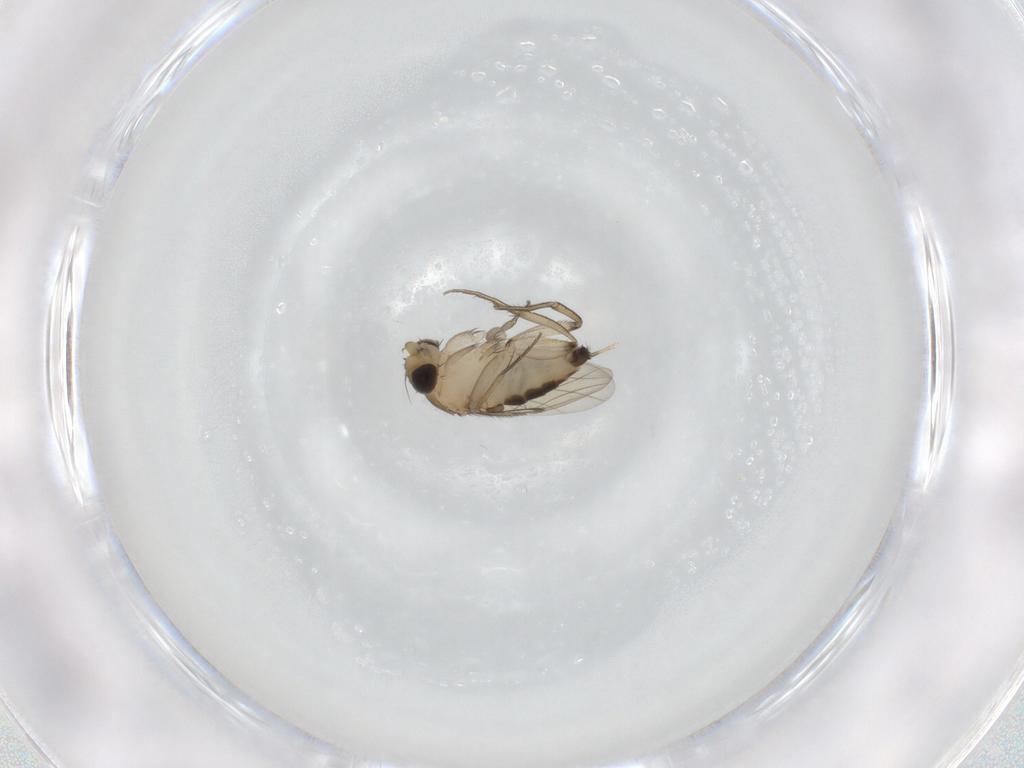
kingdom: Animalia
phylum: Arthropoda
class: Insecta
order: Diptera
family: Phoridae
